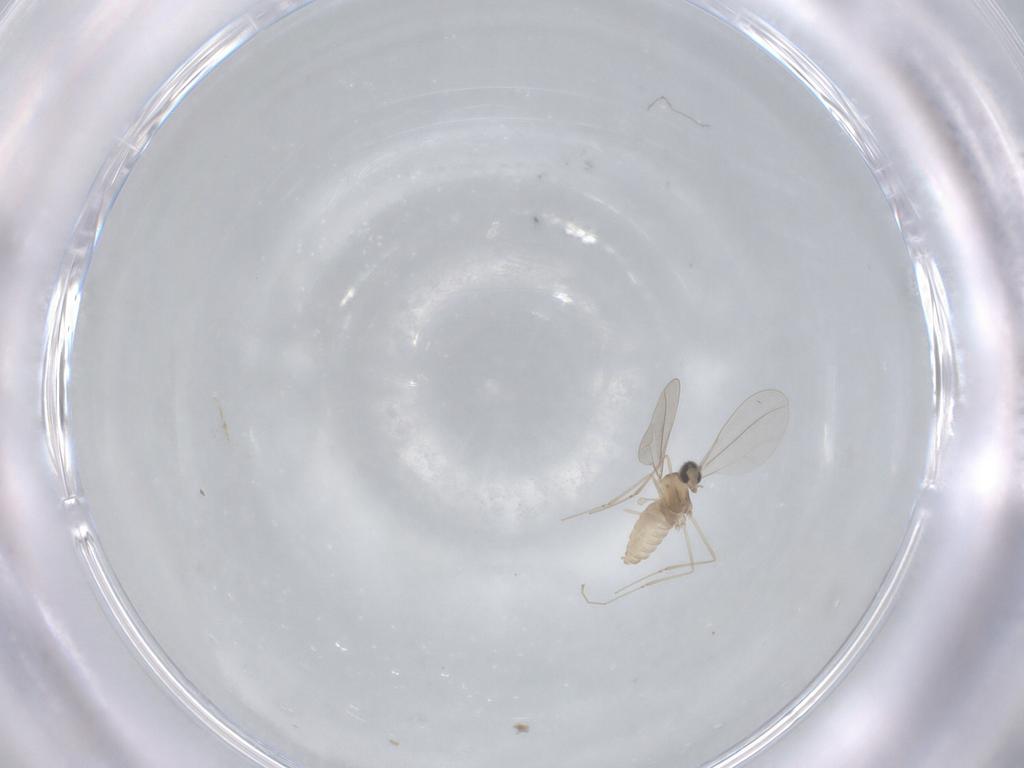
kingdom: Animalia
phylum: Arthropoda
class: Insecta
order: Diptera
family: Cecidomyiidae
